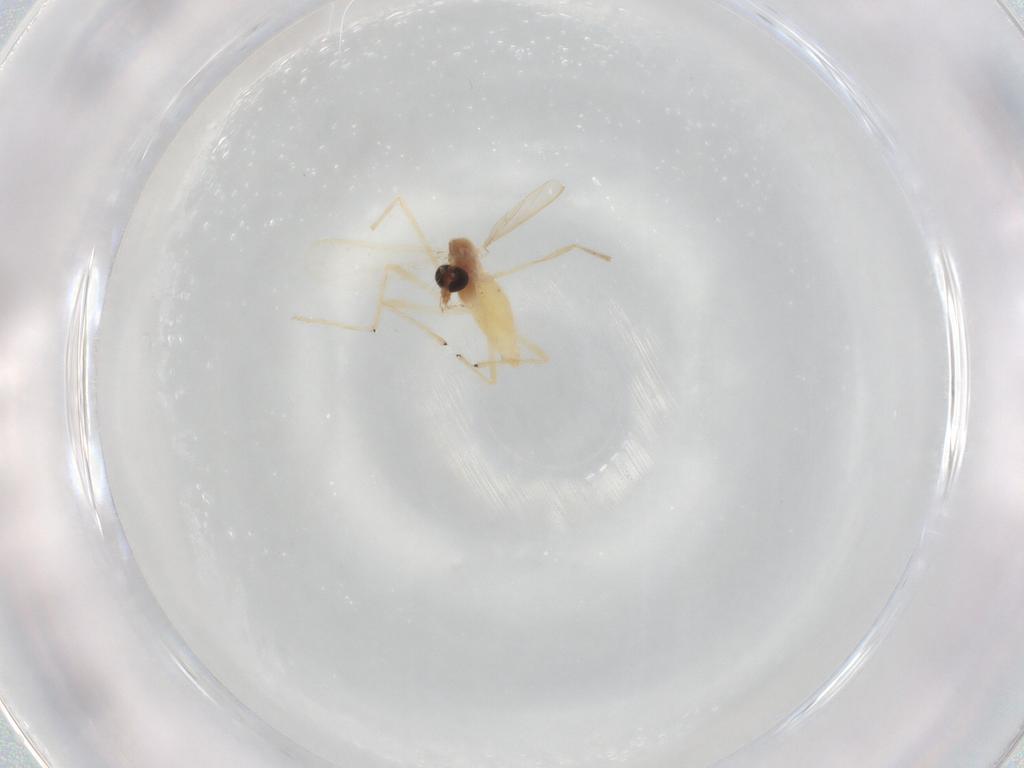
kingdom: Animalia
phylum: Arthropoda
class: Insecta
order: Diptera
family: Chironomidae
